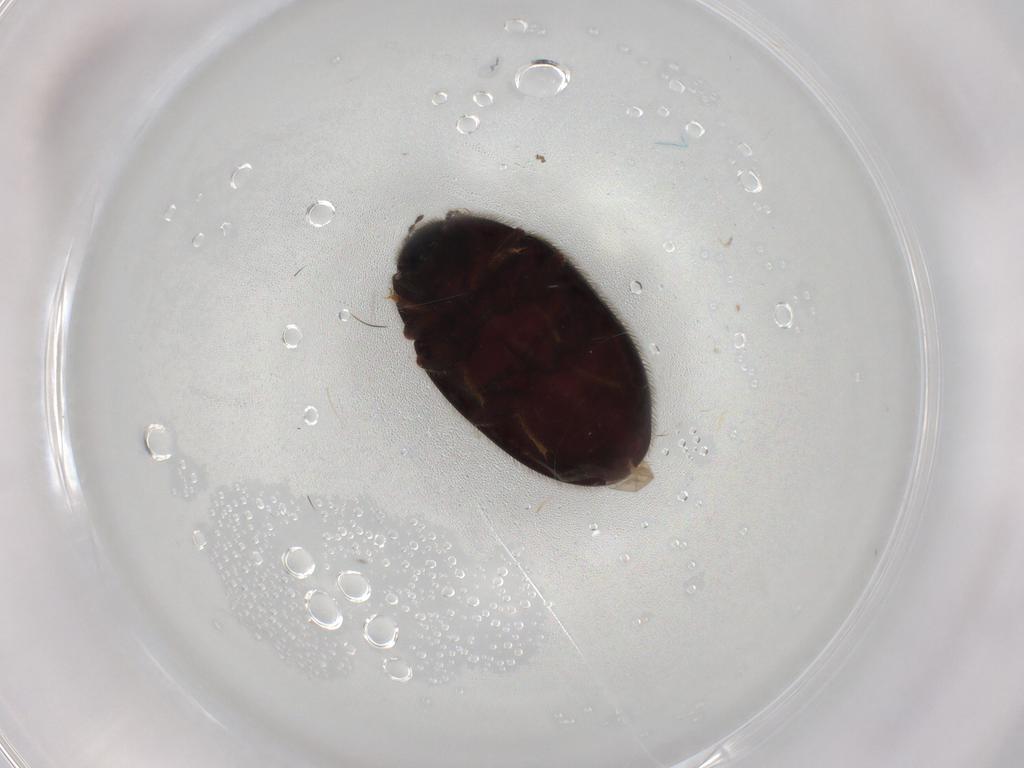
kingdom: Animalia
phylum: Arthropoda
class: Insecta
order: Coleoptera
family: Limnichidae
